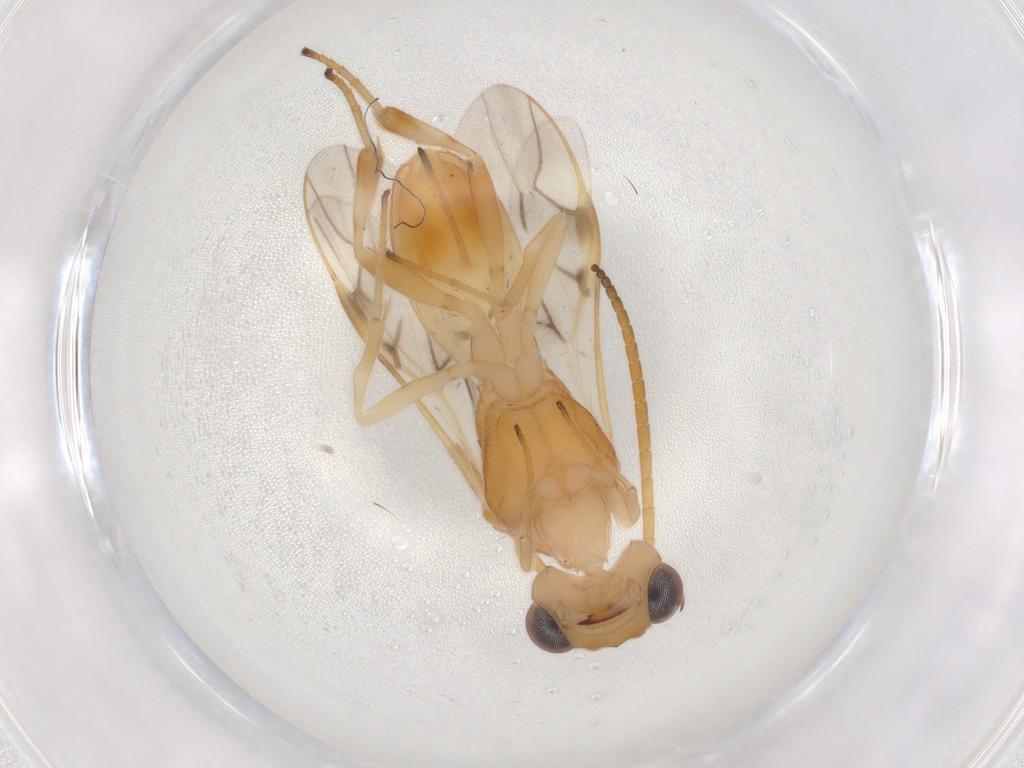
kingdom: Animalia
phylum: Arthropoda
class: Insecta
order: Hymenoptera
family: Braconidae
